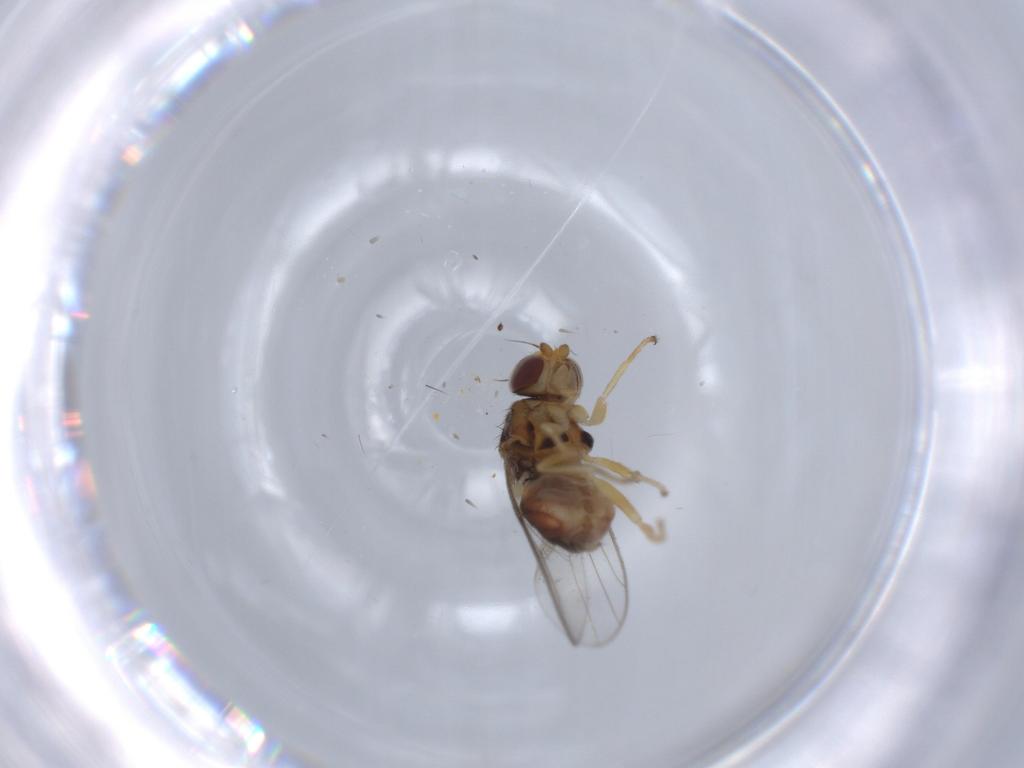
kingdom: Animalia
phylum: Arthropoda
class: Insecta
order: Diptera
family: Chloropidae
